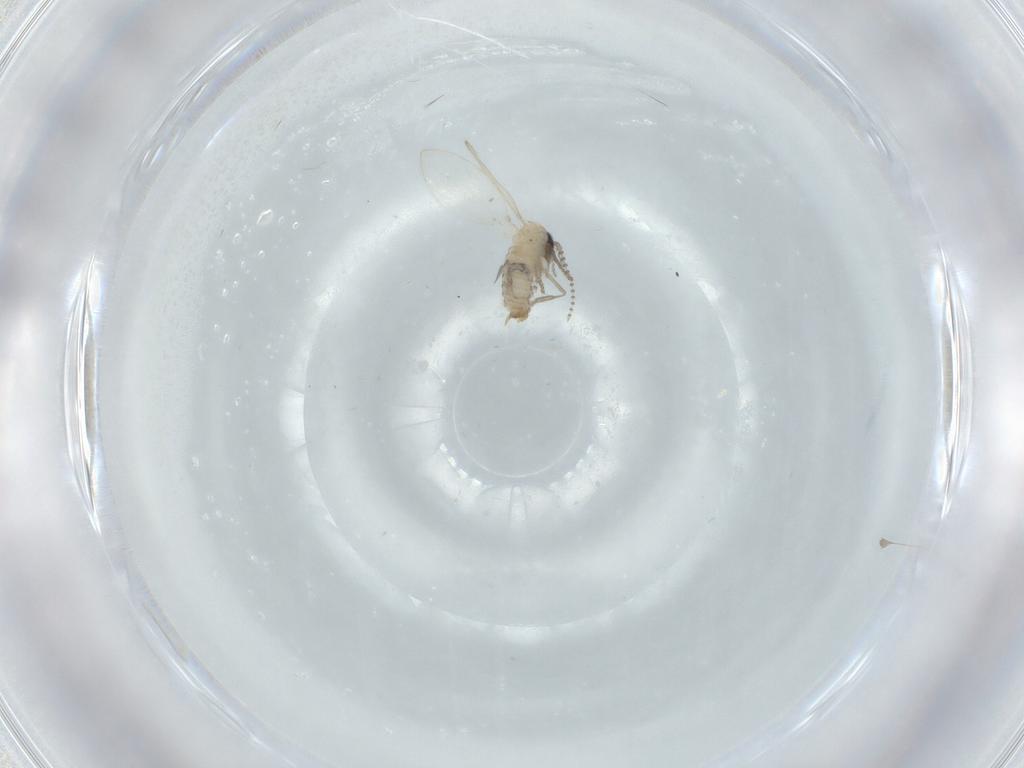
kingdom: Animalia
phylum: Arthropoda
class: Insecta
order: Diptera
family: Psychodidae
